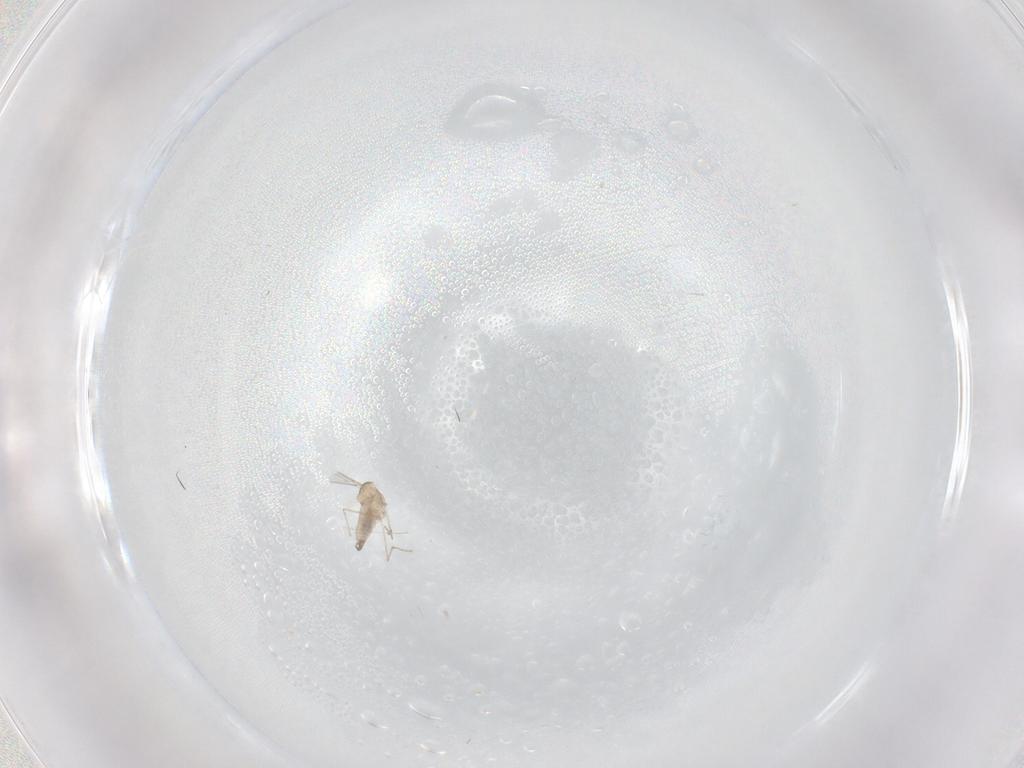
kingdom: Animalia
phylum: Arthropoda
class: Insecta
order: Diptera
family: Cecidomyiidae
